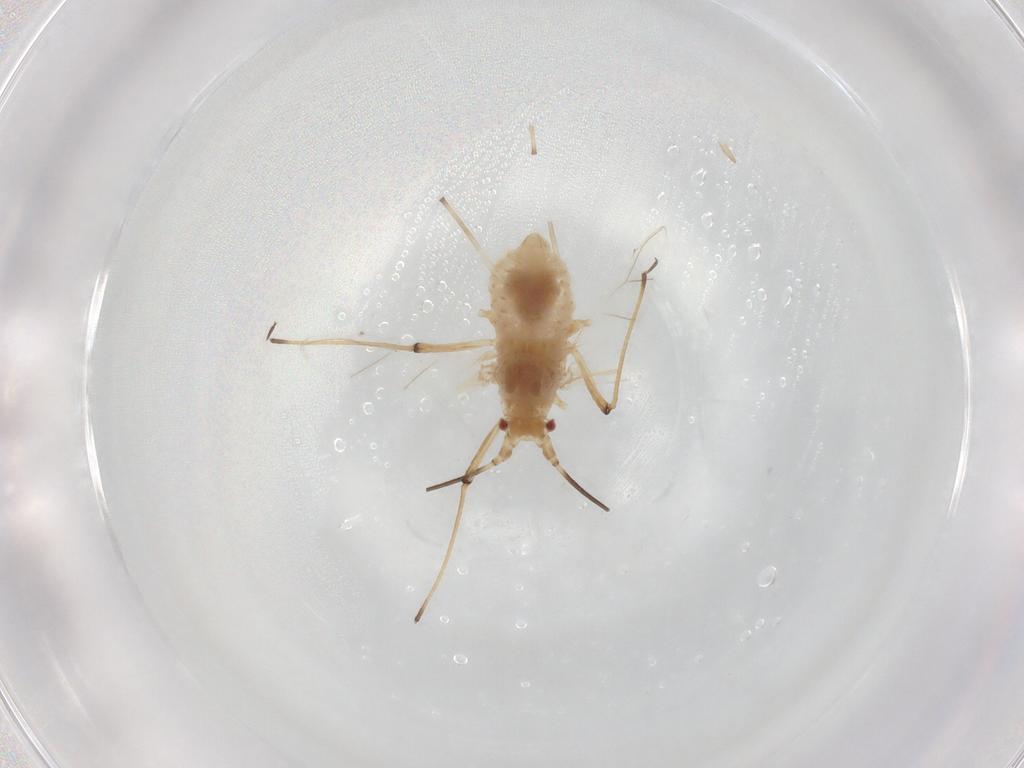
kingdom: Animalia
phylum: Arthropoda
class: Insecta
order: Hemiptera
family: Aphididae
